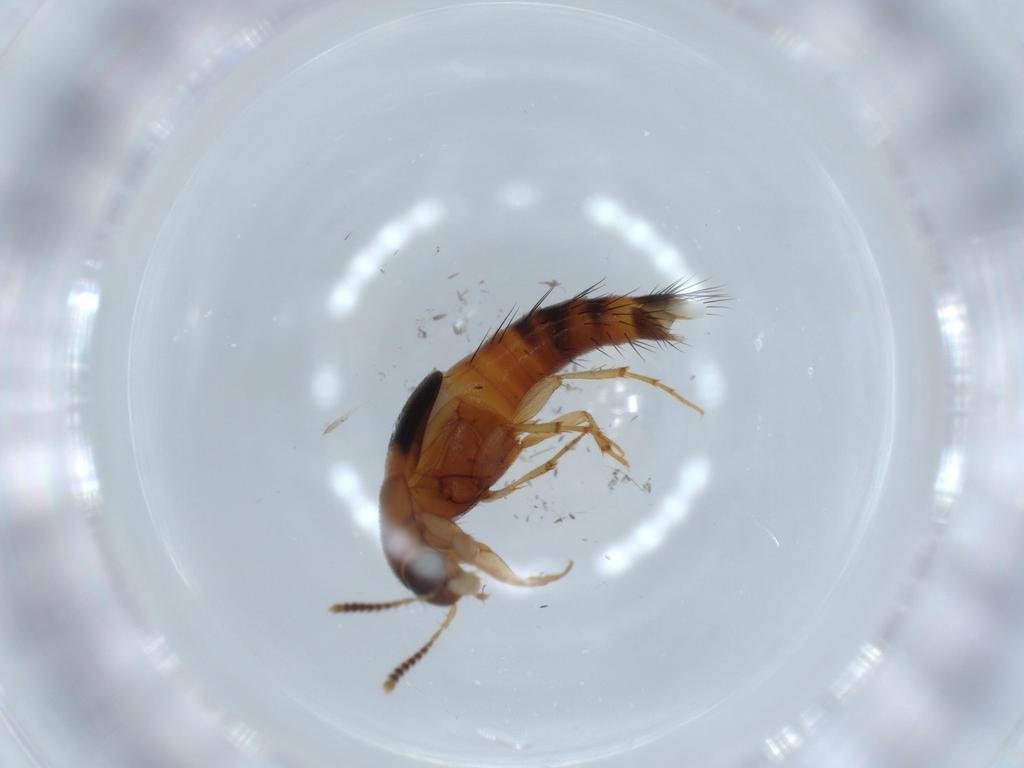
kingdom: Animalia
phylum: Arthropoda
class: Insecta
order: Coleoptera
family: Staphylinidae
